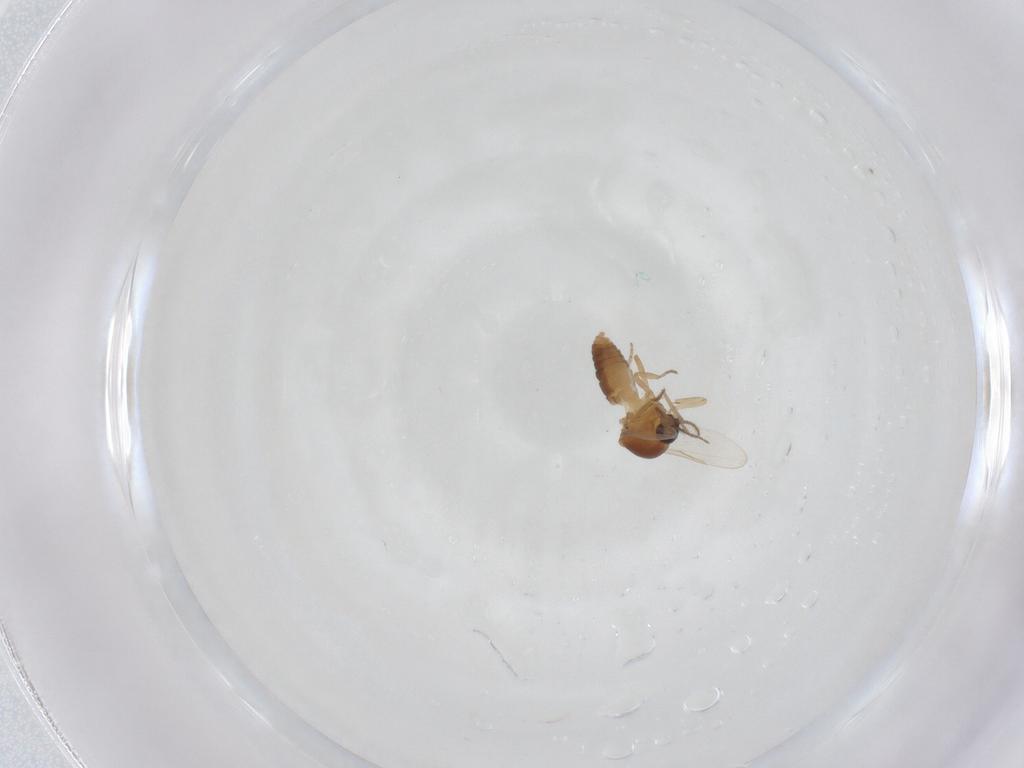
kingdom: Animalia
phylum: Arthropoda
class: Insecta
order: Diptera
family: Ceratopogonidae
